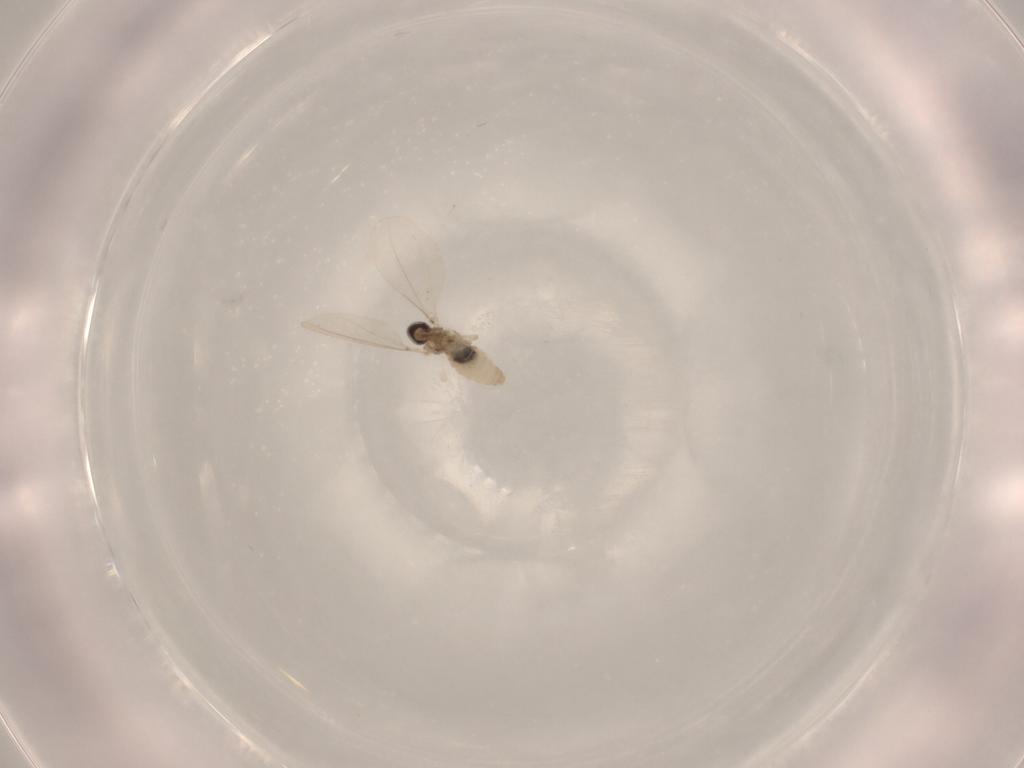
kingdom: Animalia
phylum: Arthropoda
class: Insecta
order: Diptera
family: Cecidomyiidae
